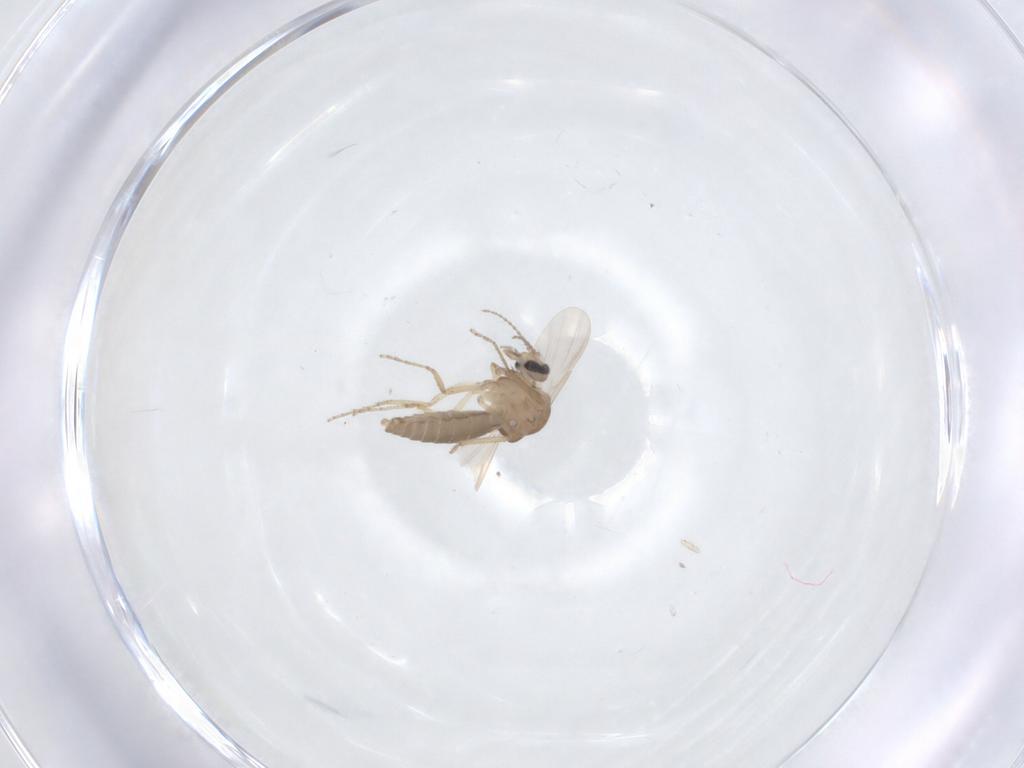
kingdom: Animalia
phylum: Arthropoda
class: Insecta
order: Diptera
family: Ceratopogonidae
